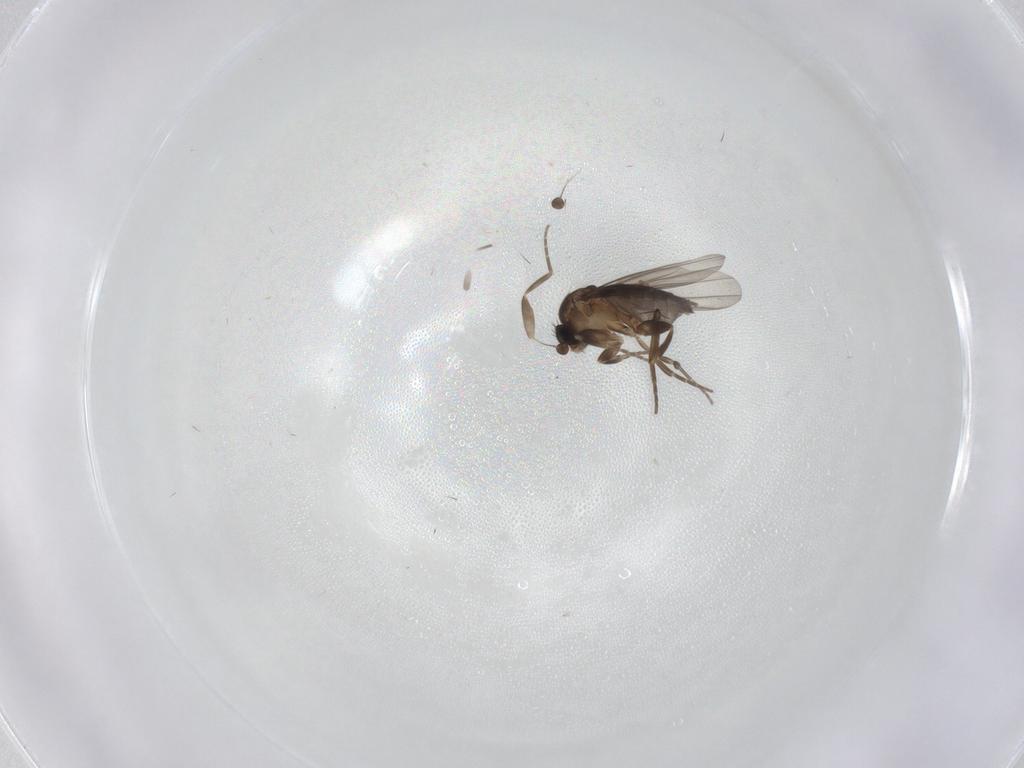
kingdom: Animalia
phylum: Arthropoda
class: Insecta
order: Diptera
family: Phoridae
